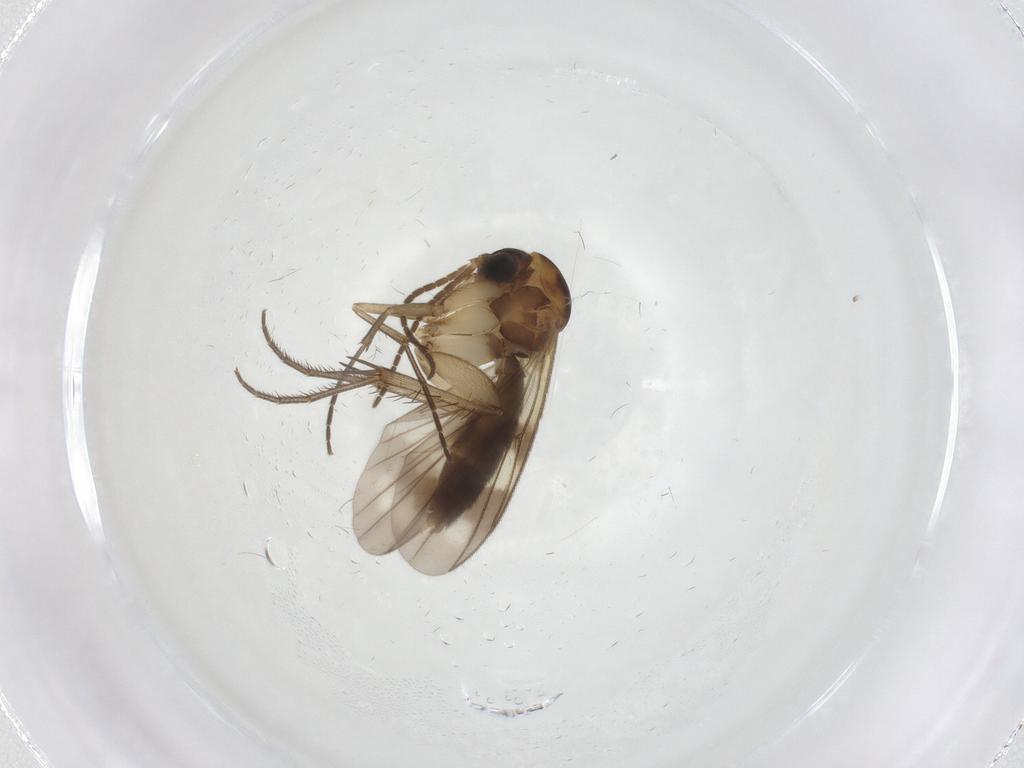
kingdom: Animalia
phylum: Arthropoda
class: Insecta
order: Diptera
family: Mycetophilidae
